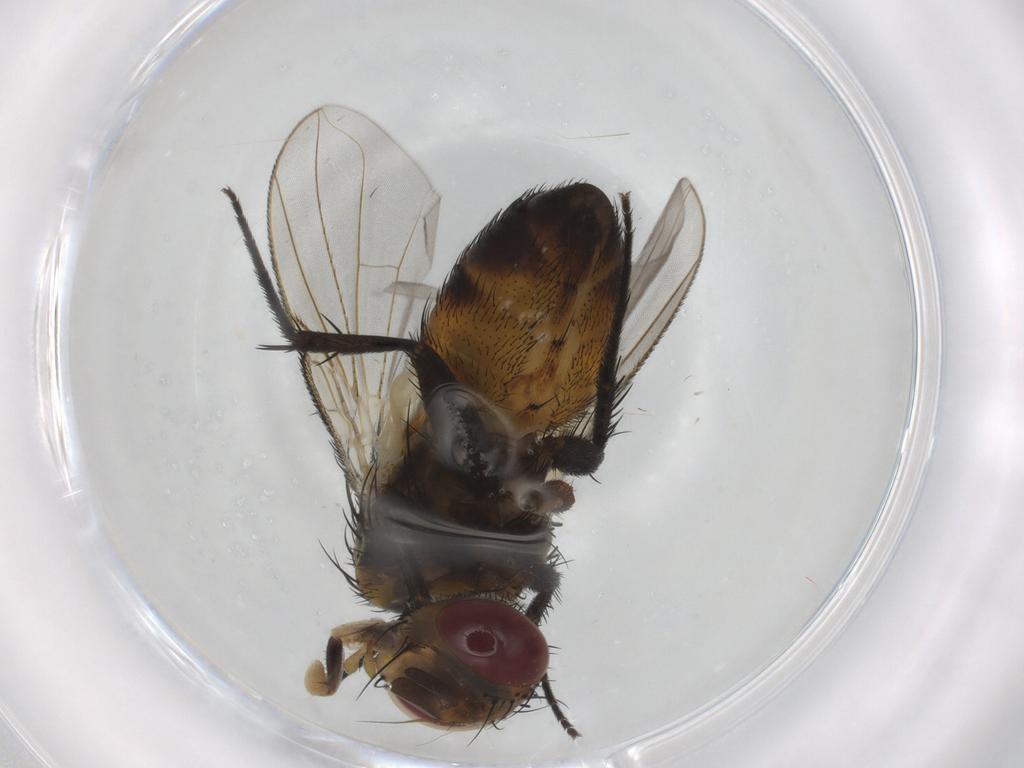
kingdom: Animalia
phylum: Arthropoda
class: Insecta
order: Diptera
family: Tachinidae
